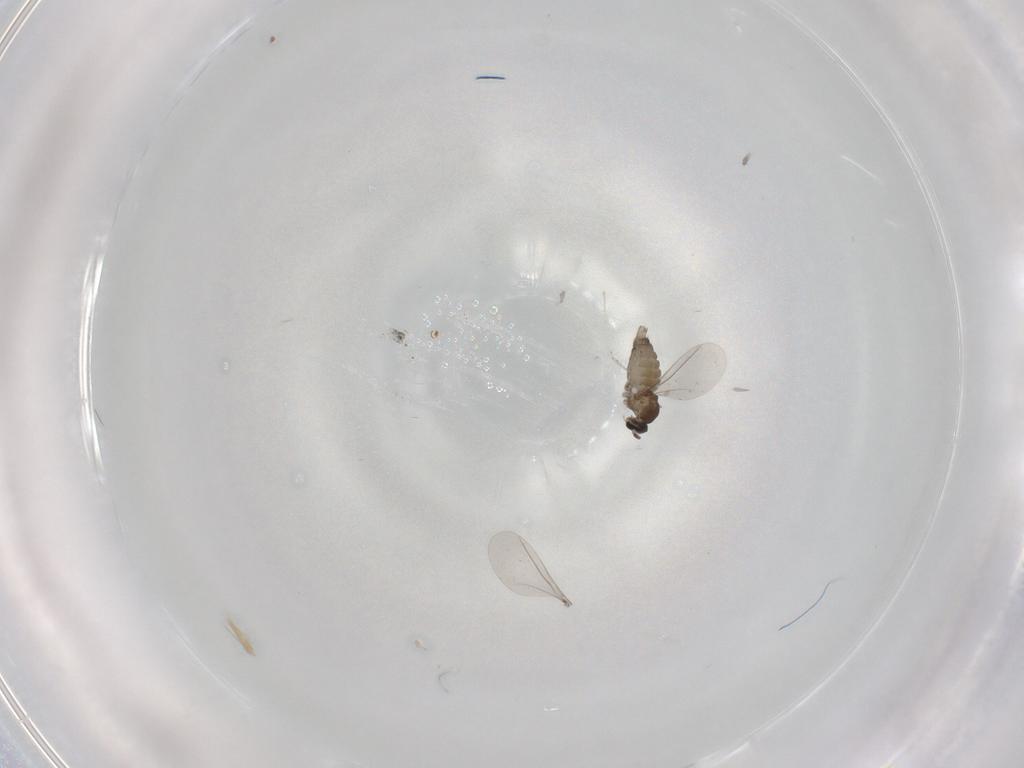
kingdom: Animalia
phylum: Arthropoda
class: Insecta
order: Diptera
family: Cecidomyiidae
